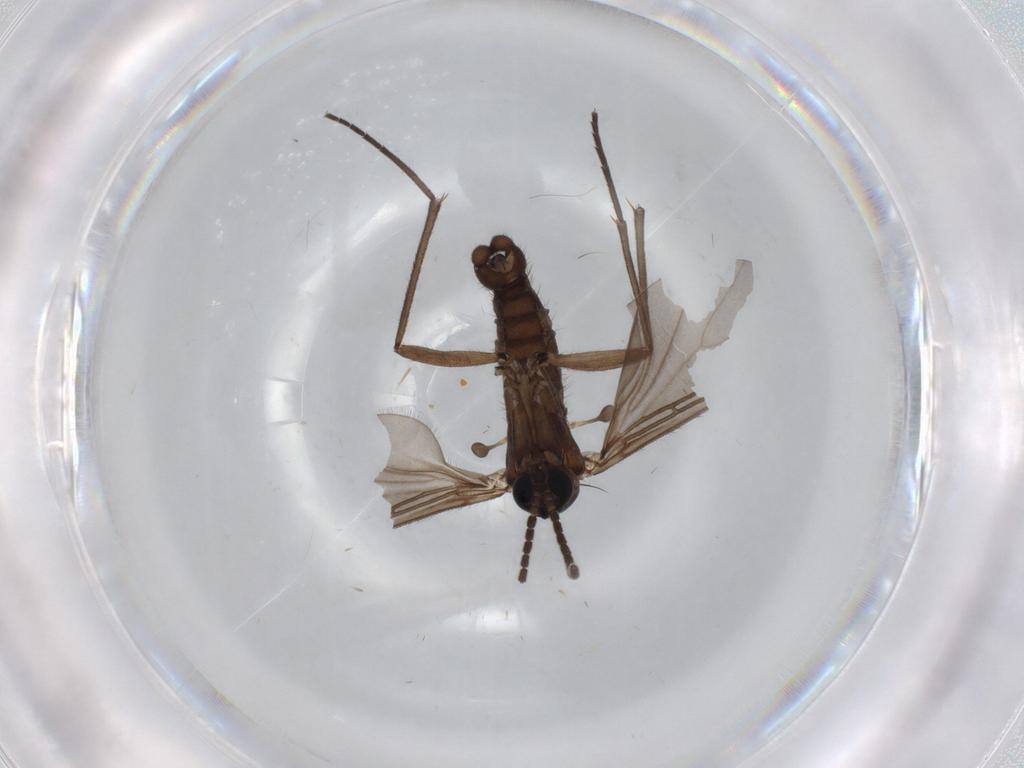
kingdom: Animalia
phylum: Arthropoda
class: Insecta
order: Diptera
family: Sciaridae
